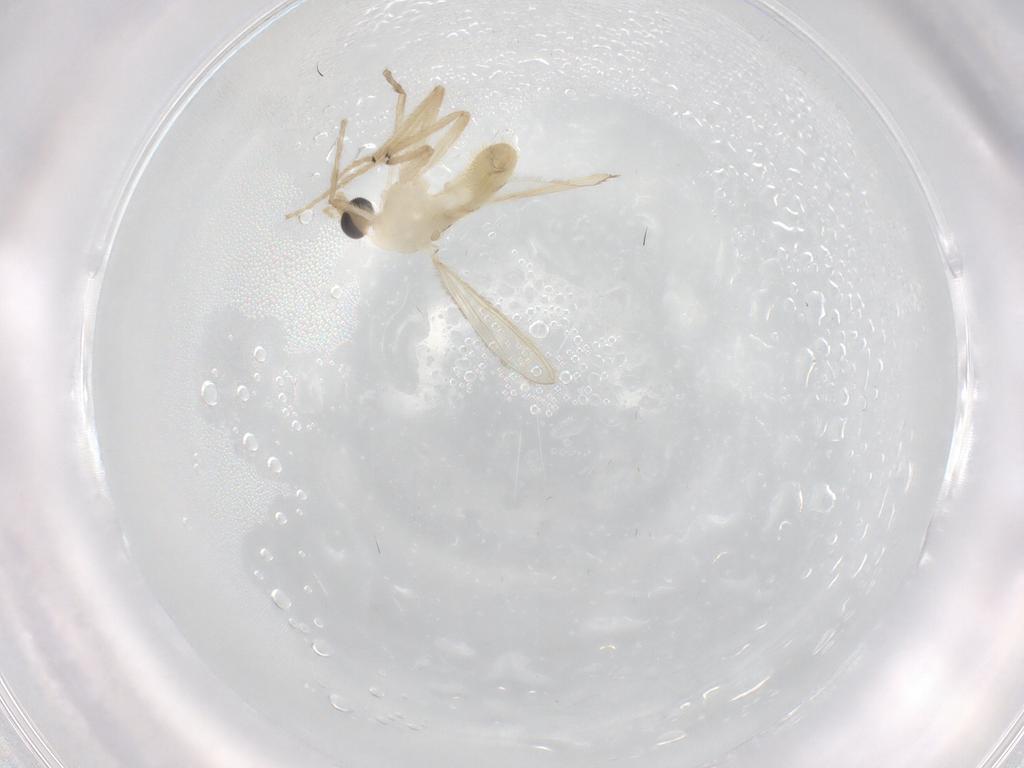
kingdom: Animalia
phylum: Arthropoda
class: Insecta
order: Diptera
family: Chironomidae
